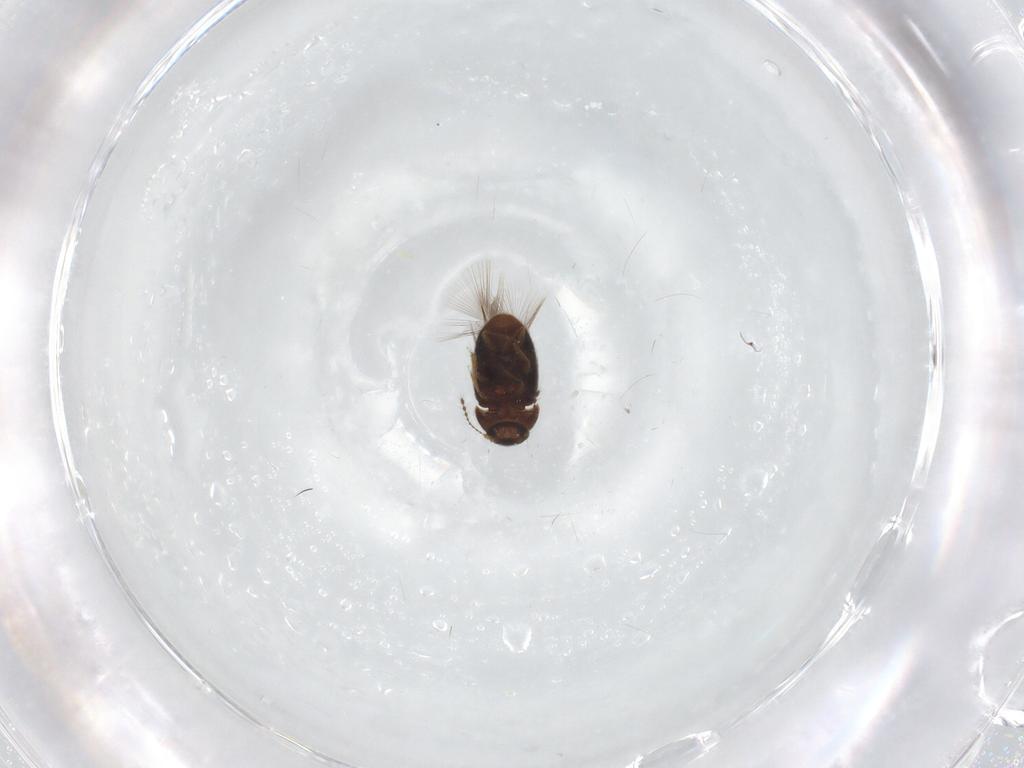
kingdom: Animalia
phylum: Arthropoda
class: Insecta
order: Coleoptera
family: Ptiliidae
